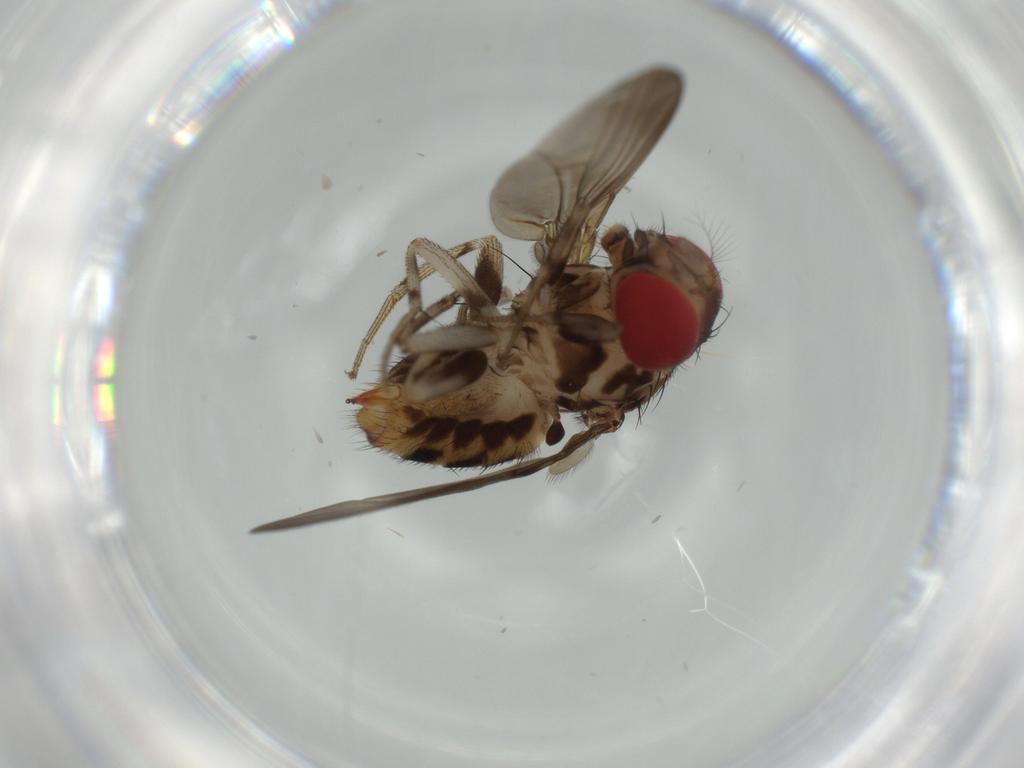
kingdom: Animalia
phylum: Arthropoda
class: Insecta
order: Diptera
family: Drosophilidae
